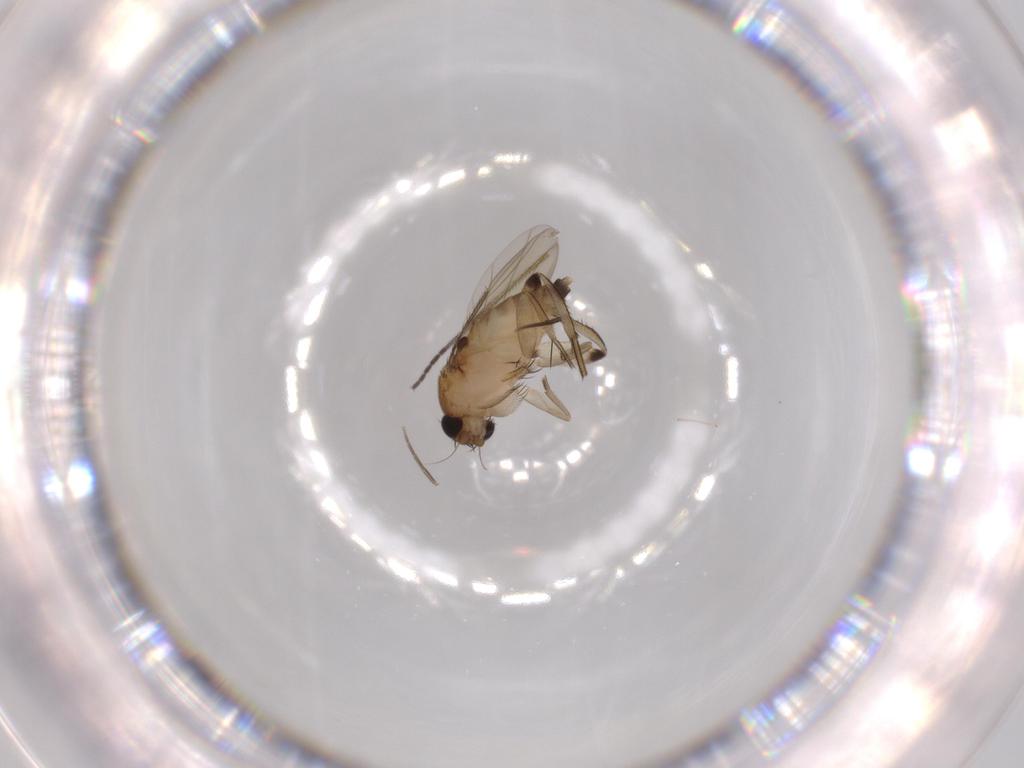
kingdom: Animalia
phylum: Arthropoda
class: Insecta
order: Diptera
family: Phoridae
